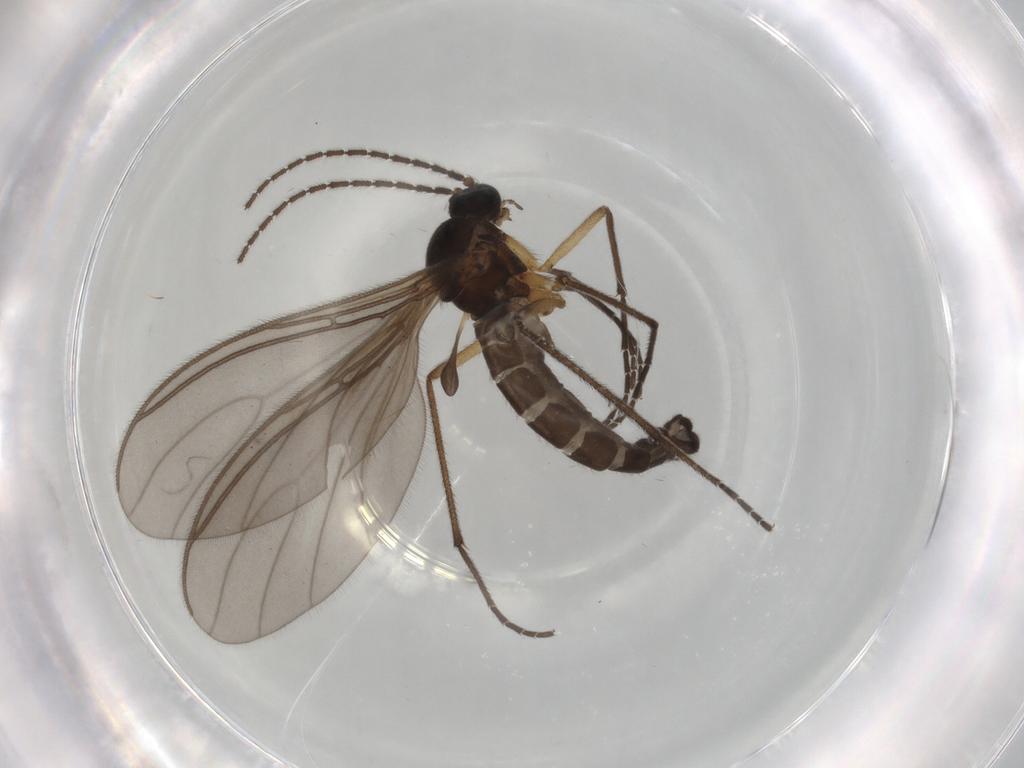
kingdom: Animalia
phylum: Arthropoda
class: Insecta
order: Diptera
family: Sciaridae
